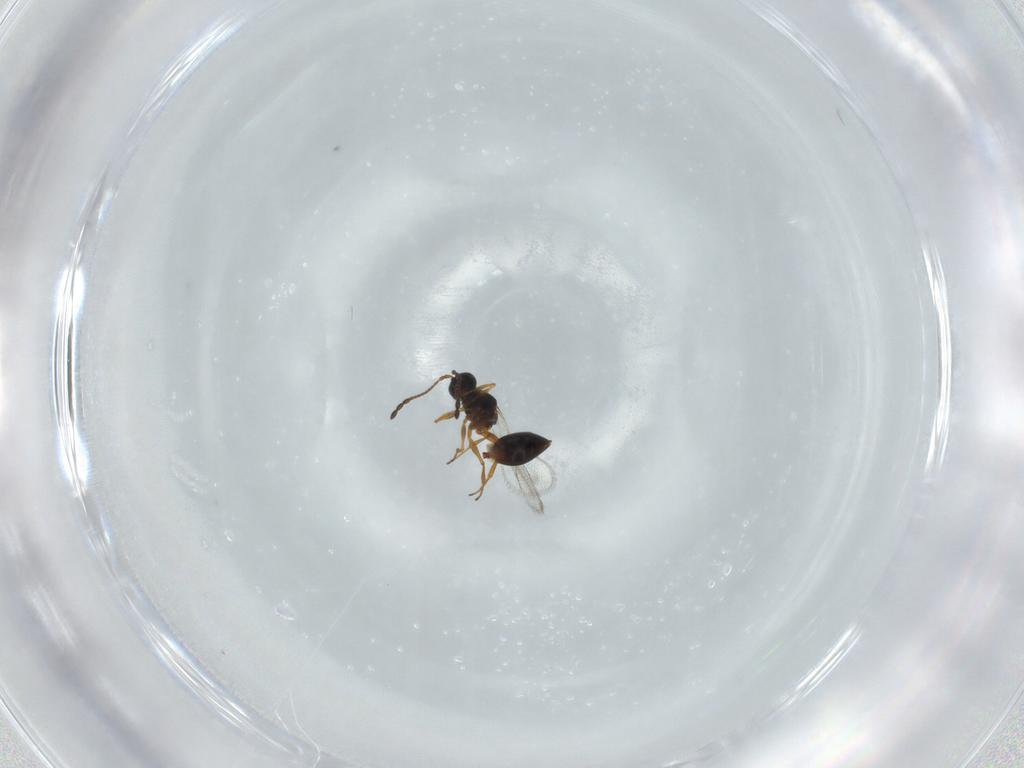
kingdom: Animalia
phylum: Arthropoda
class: Insecta
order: Hymenoptera
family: Figitidae
